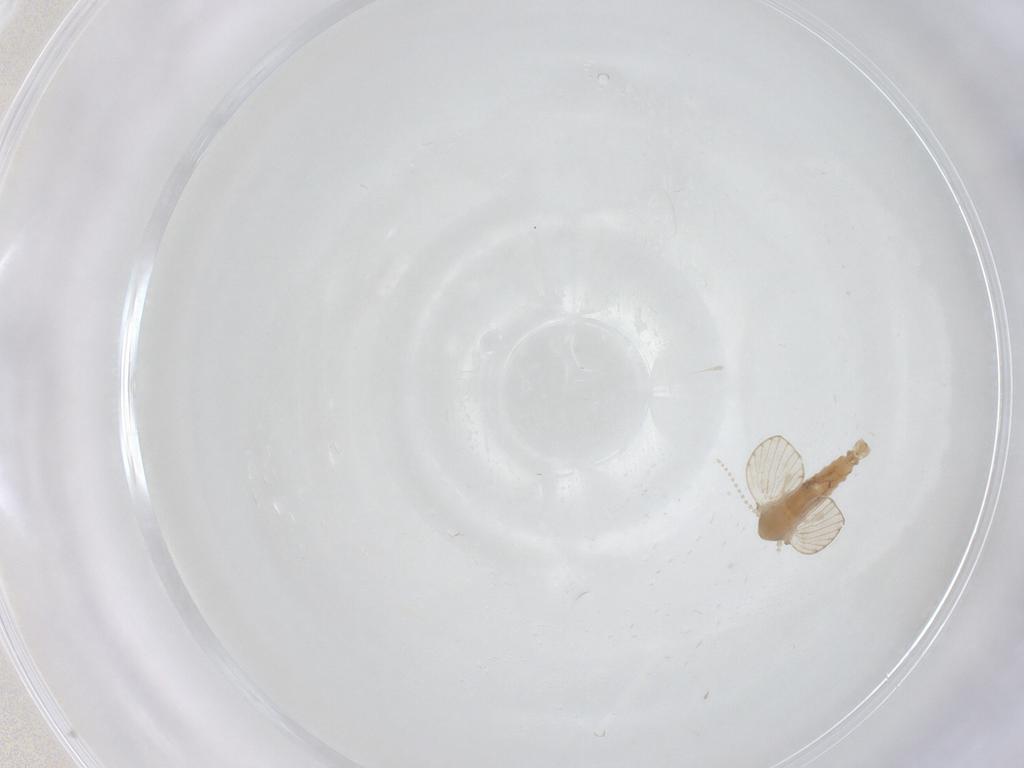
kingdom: Animalia
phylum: Arthropoda
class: Insecta
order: Diptera
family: Psychodidae
